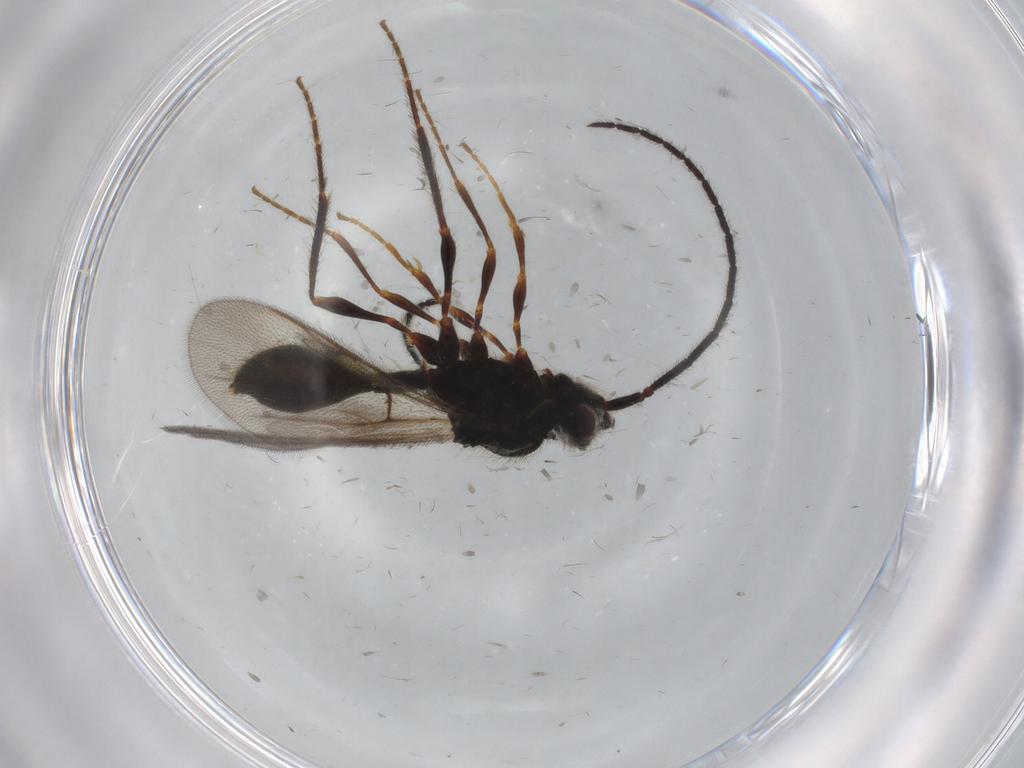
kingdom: Animalia
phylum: Arthropoda
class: Insecta
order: Hymenoptera
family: Diapriidae
